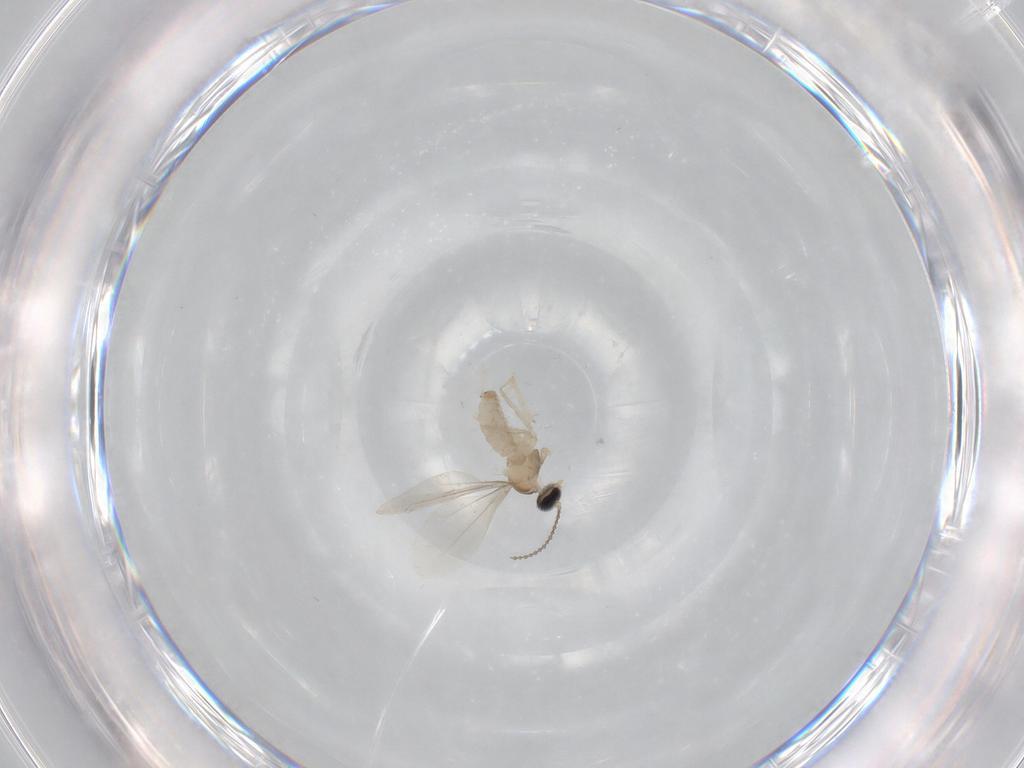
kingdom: Animalia
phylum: Arthropoda
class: Insecta
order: Diptera
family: Cecidomyiidae
